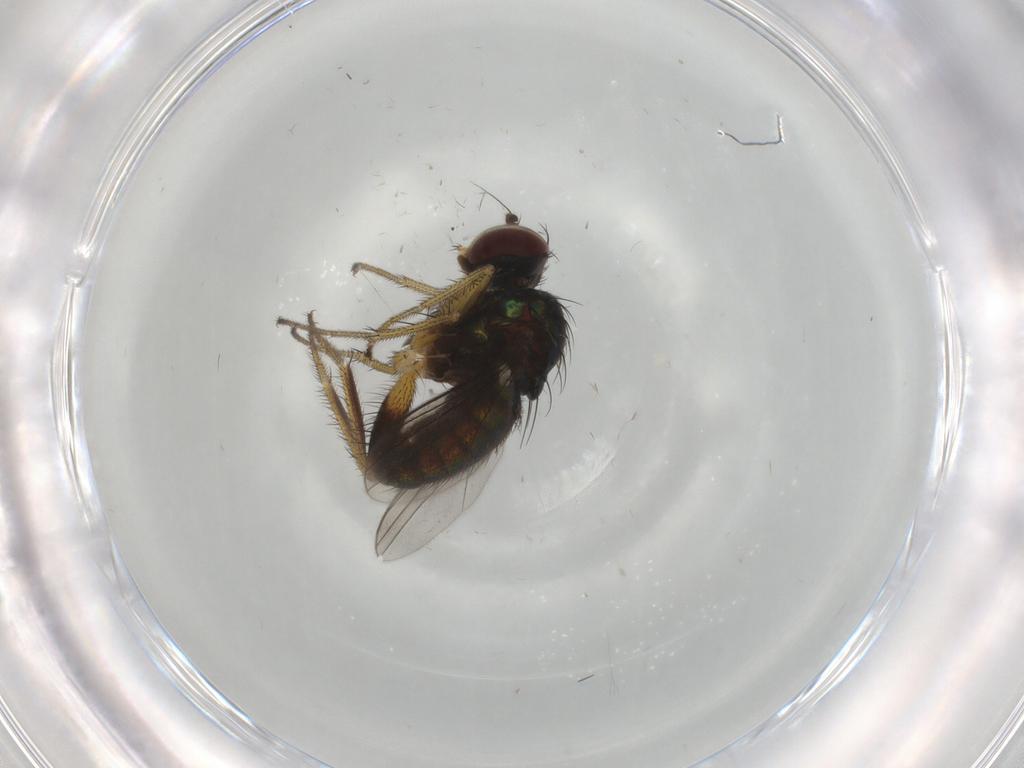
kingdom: Animalia
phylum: Arthropoda
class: Insecta
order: Diptera
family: Dolichopodidae
